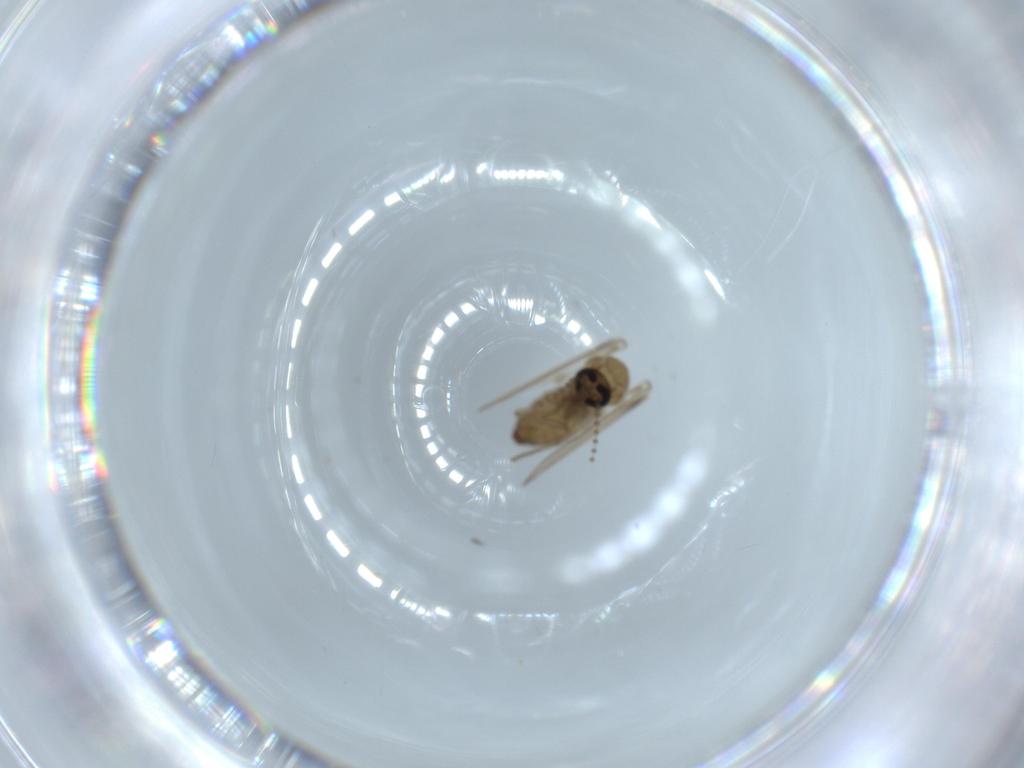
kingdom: Animalia
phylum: Arthropoda
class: Insecta
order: Diptera
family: Psychodidae
